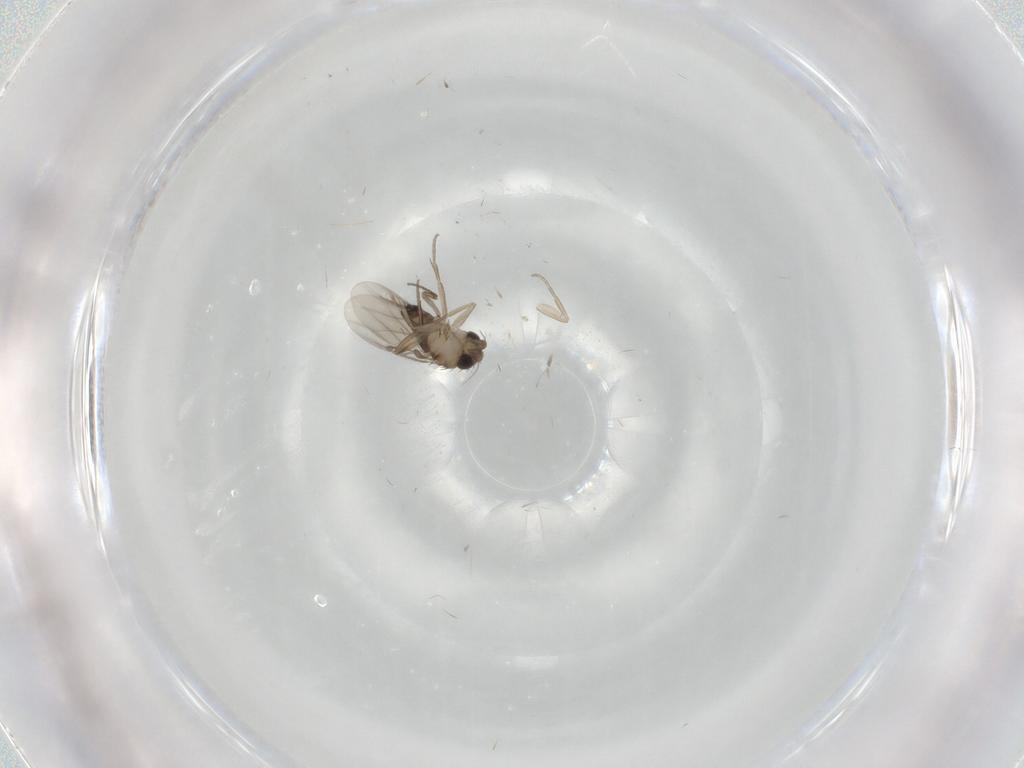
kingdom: Animalia
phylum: Arthropoda
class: Insecta
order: Diptera
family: Phoridae
